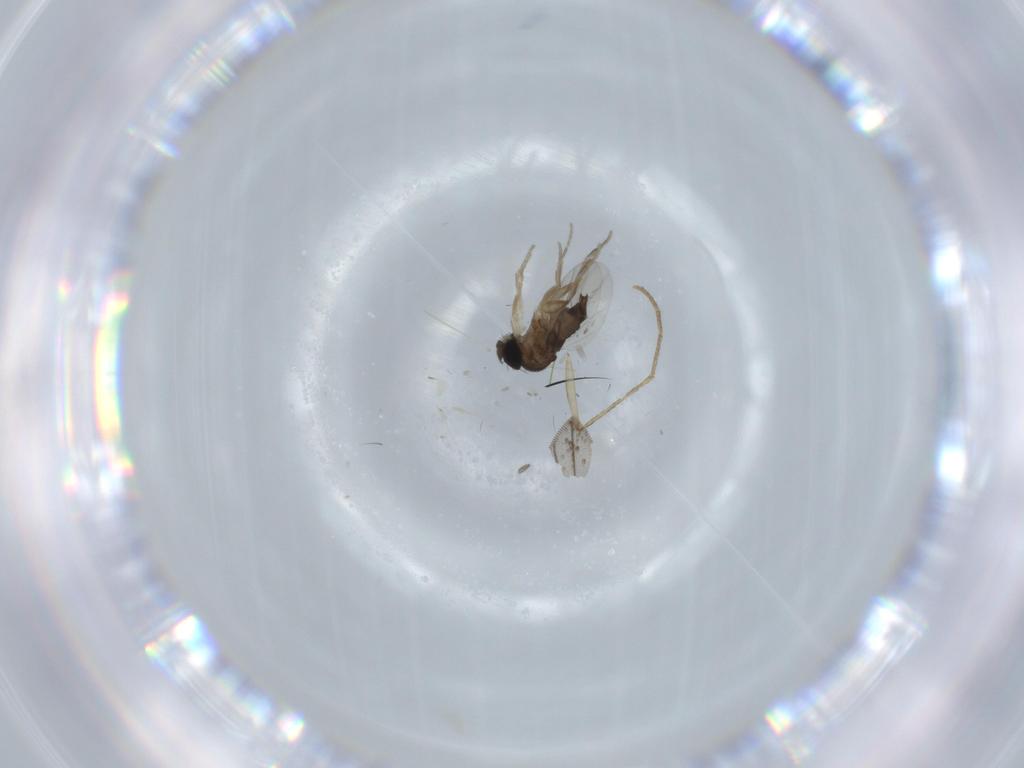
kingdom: Animalia
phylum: Arthropoda
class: Insecta
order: Diptera
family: Phoridae
